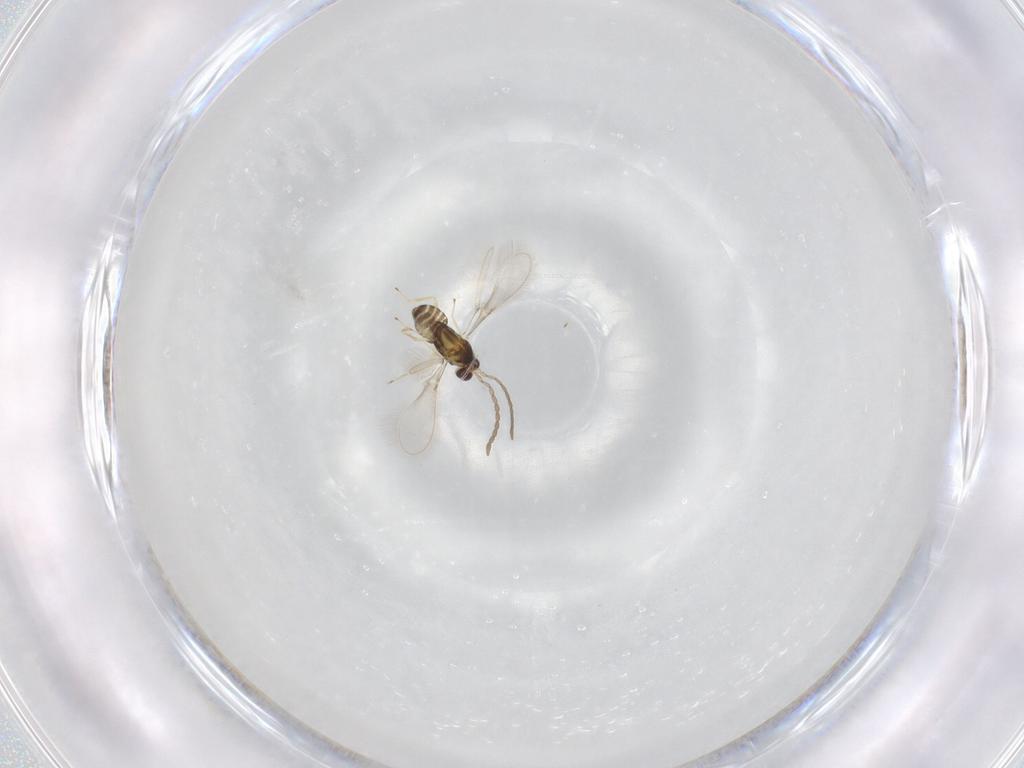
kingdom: Animalia
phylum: Arthropoda
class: Insecta
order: Hymenoptera
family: Mymaridae
